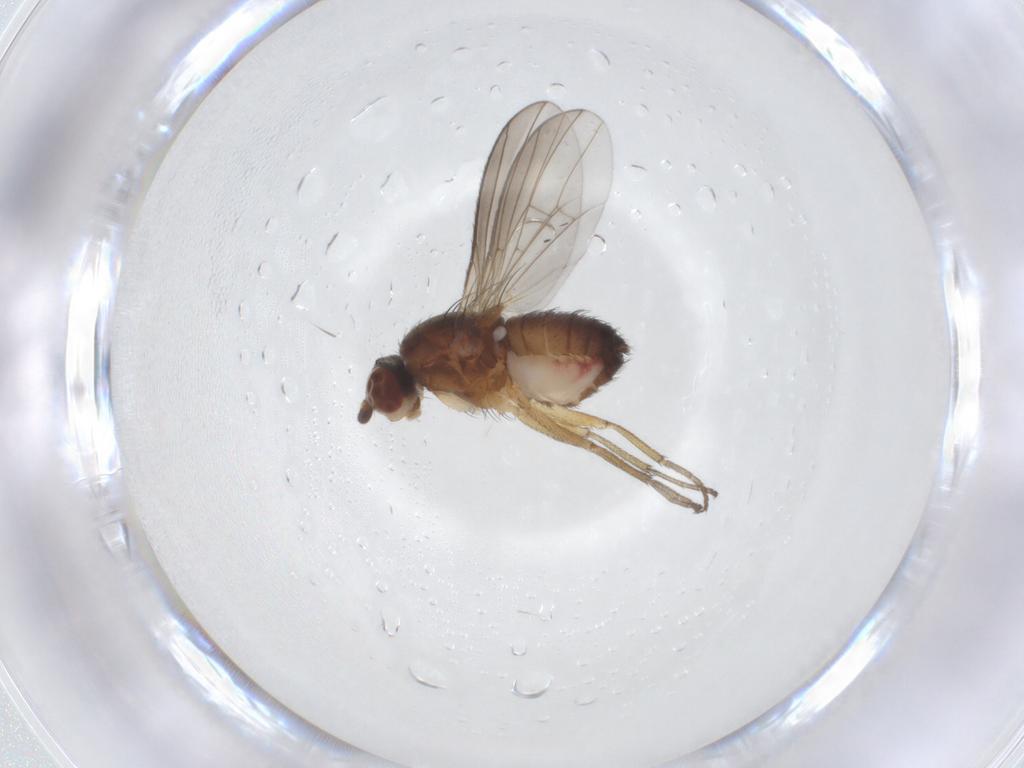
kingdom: Animalia
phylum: Arthropoda
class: Insecta
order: Diptera
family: Heleomyzidae
